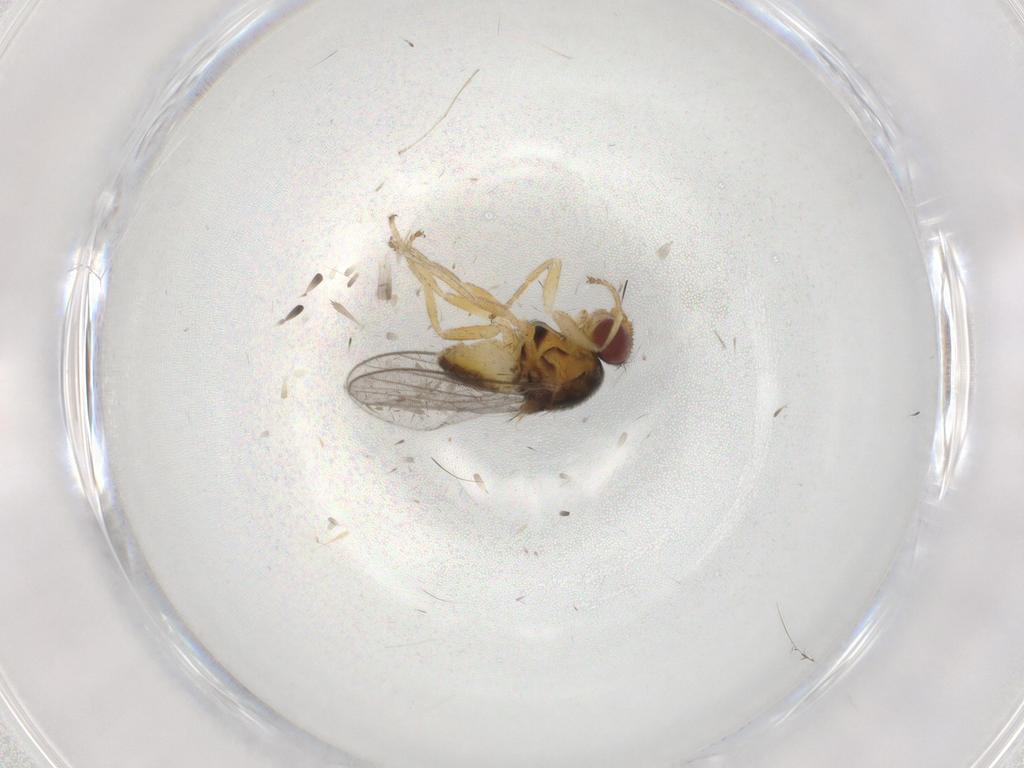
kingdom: Animalia
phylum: Arthropoda
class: Insecta
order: Diptera
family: Chloropidae
